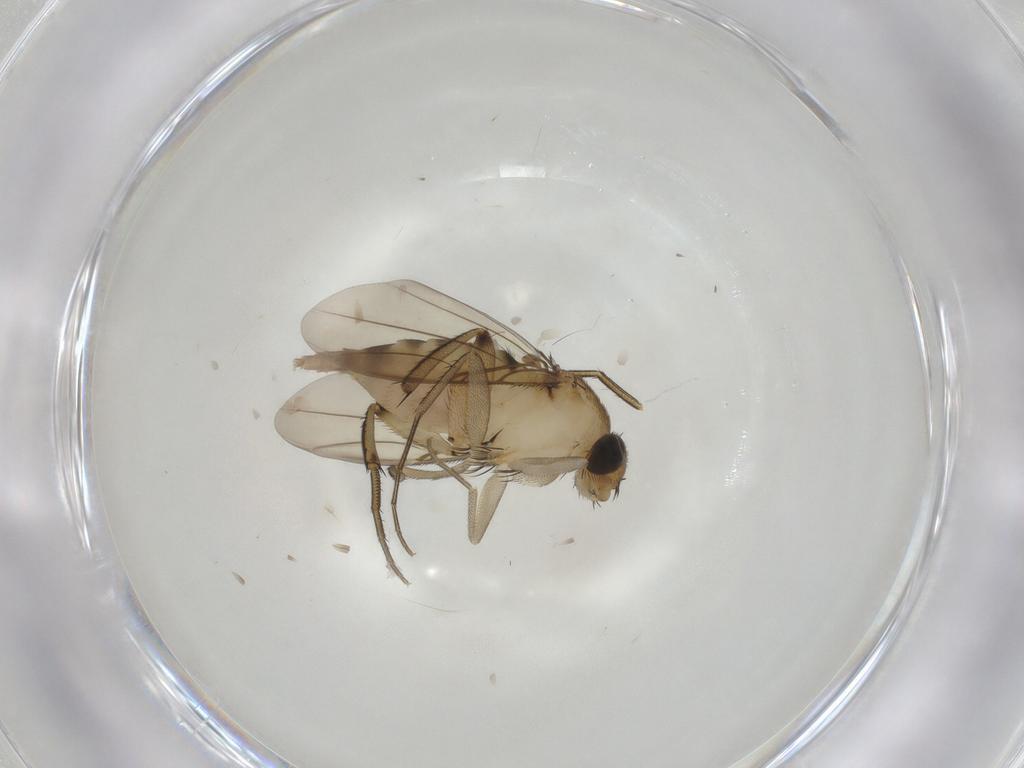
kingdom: Animalia
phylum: Arthropoda
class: Insecta
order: Diptera
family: Phoridae
